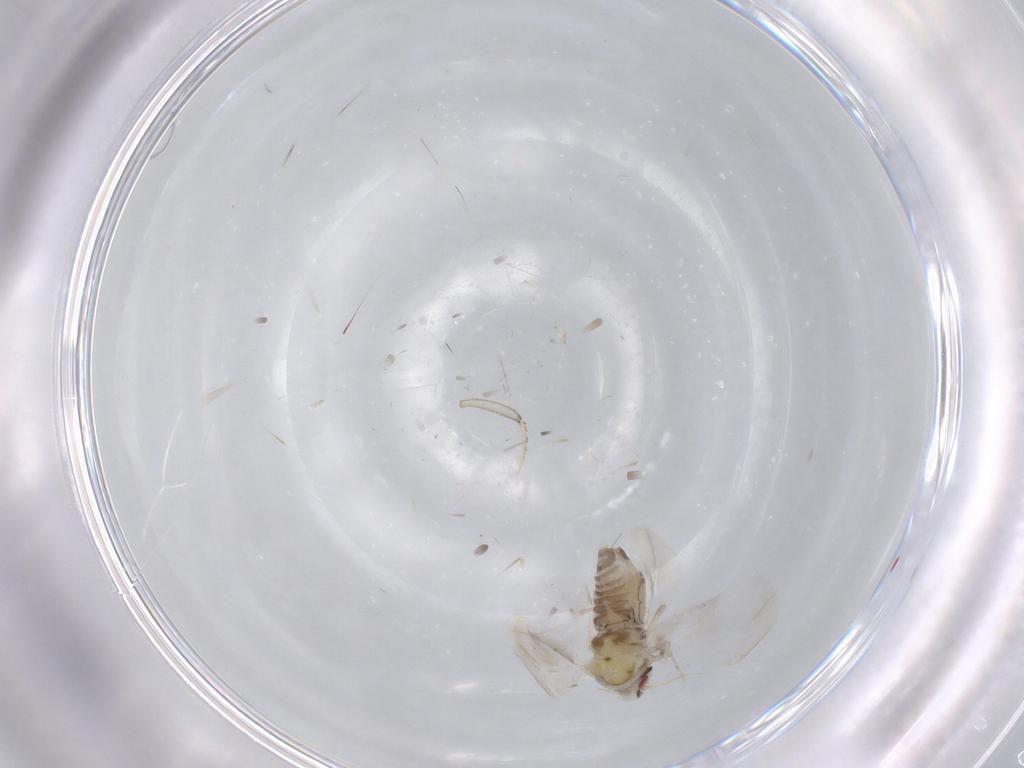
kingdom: Animalia
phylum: Arthropoda
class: Insecta
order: Hemiptera
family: Aleyrodidae
